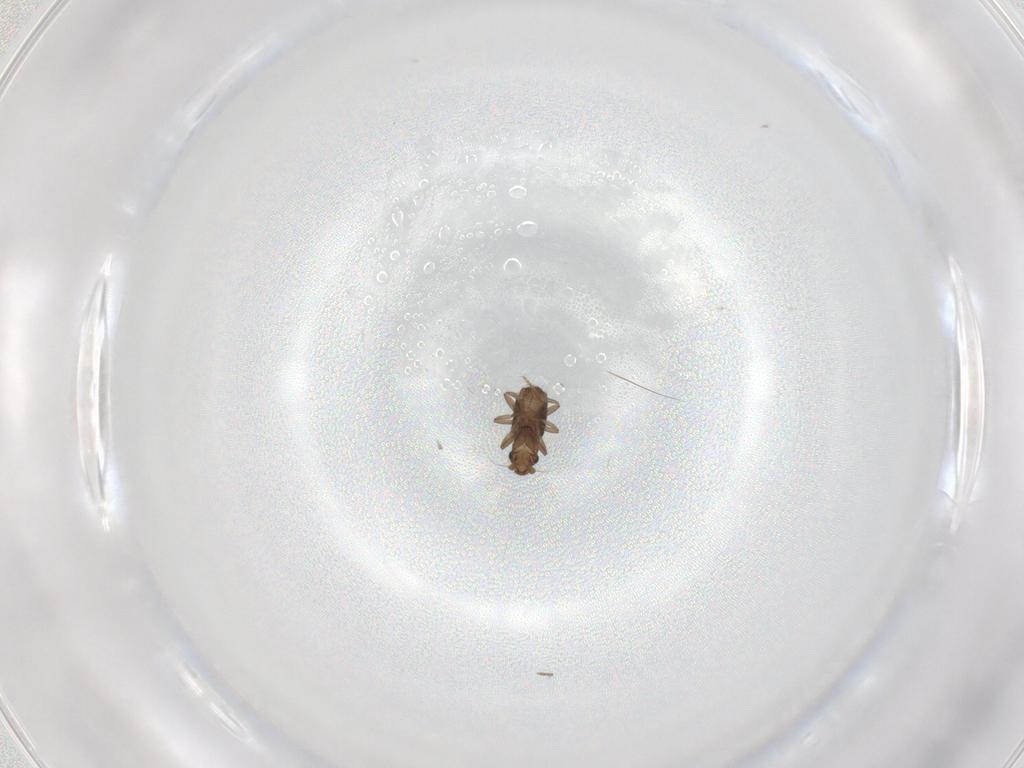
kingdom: Animalia
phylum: Arthropoda
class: Insecta
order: Diptera
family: Phoridae
